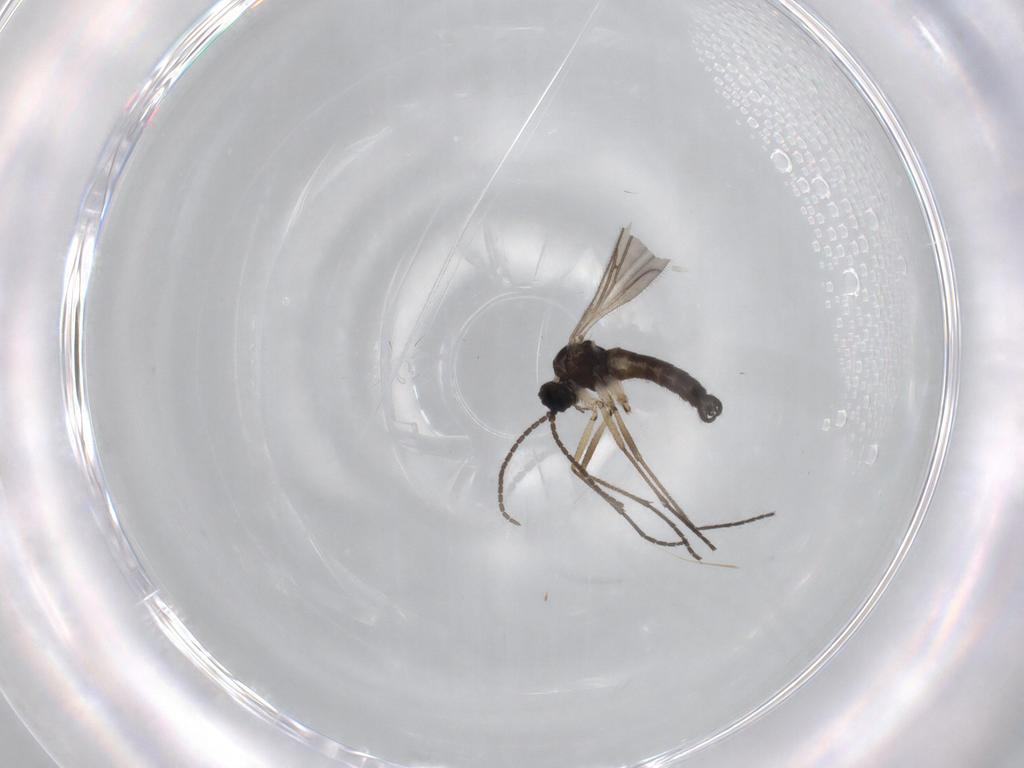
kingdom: Animalia
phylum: Arthropoda
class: Insecta
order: Diptera
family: Sciaridae
